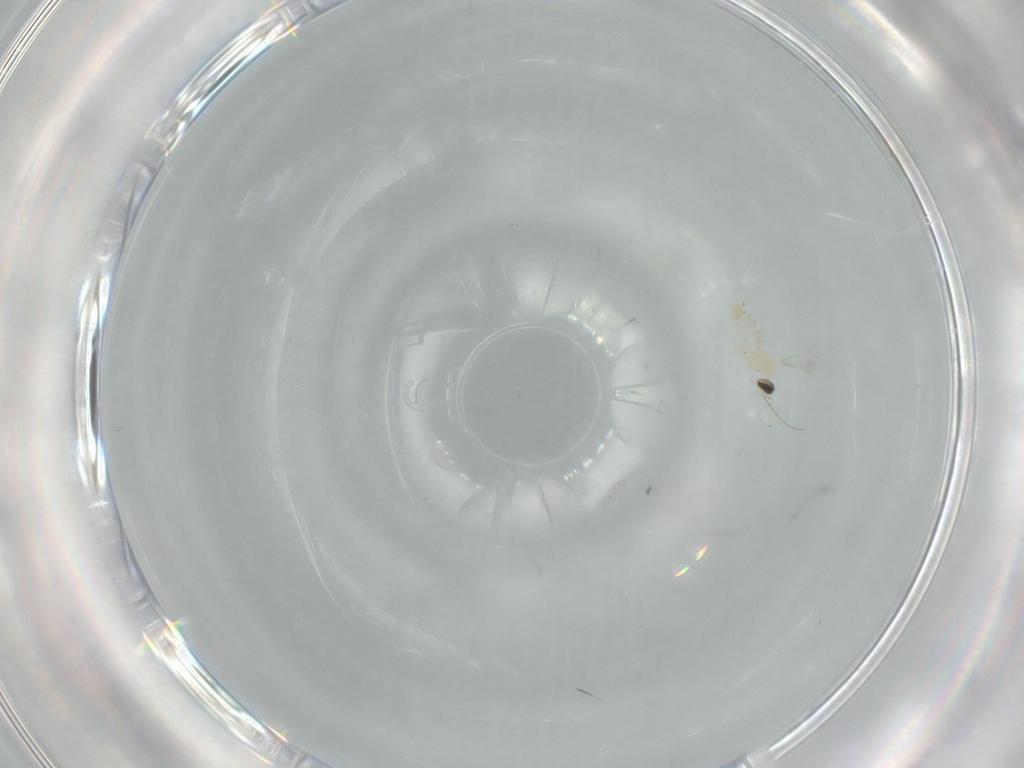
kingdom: Animalia
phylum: Arthropoda
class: Insecta
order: Diptera
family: Cecidomyiidae
